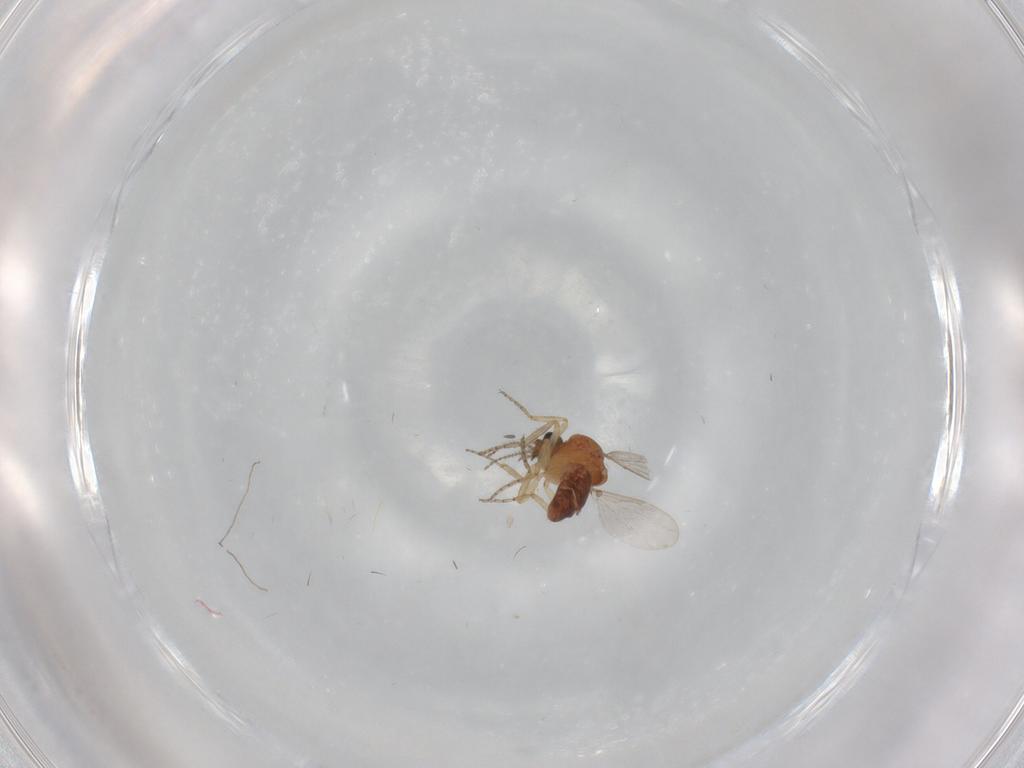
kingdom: Animalia
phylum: Arthropoda
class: Insecta
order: Diptera
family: Ceratopogonidae
